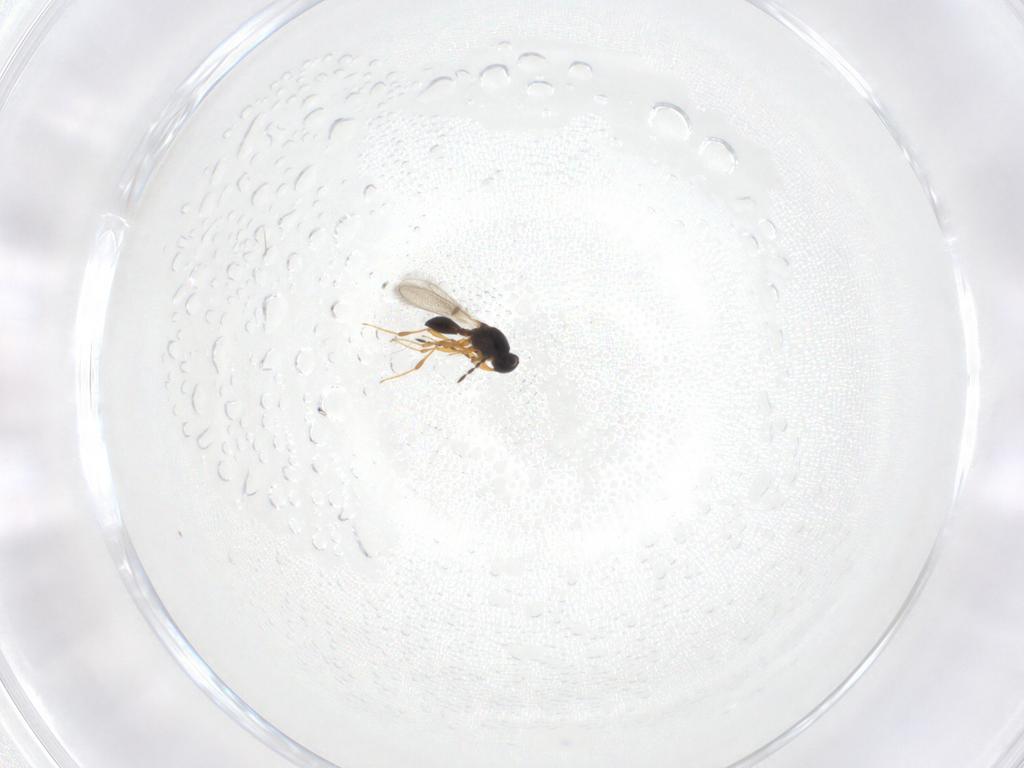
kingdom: Animalia
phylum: Arthropoda
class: Insecta
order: Hymenoptera
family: Platygastridae
